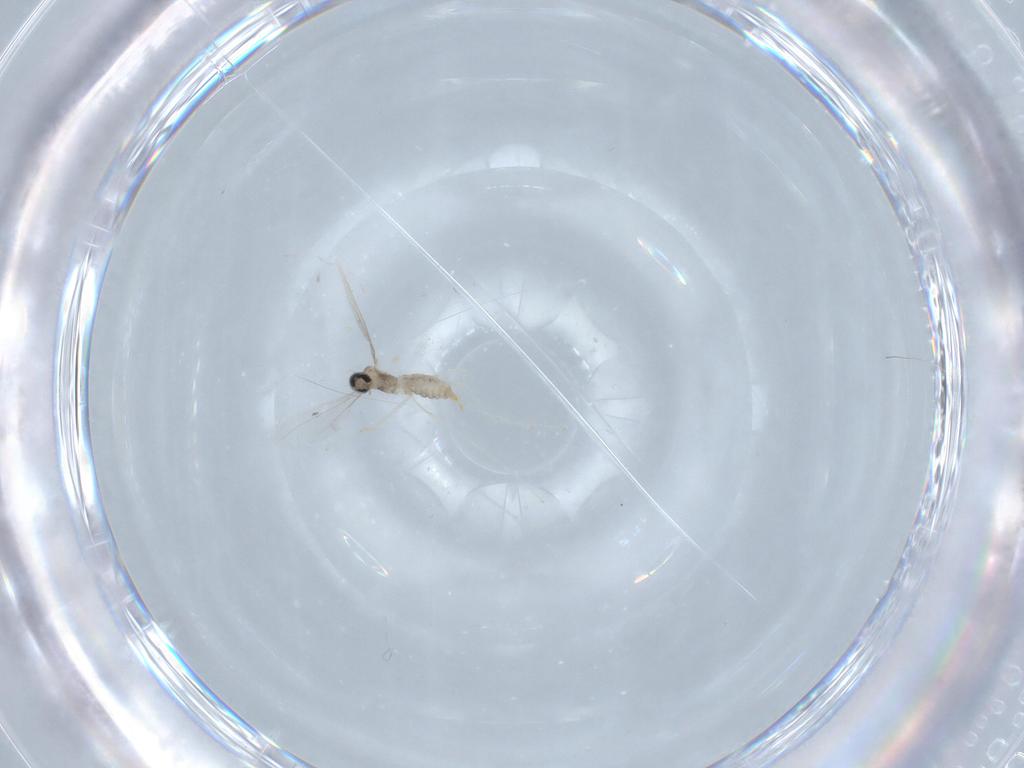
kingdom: Animalia
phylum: Arthropoda
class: Insecta
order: Diptera
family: Cecidomyiidae
